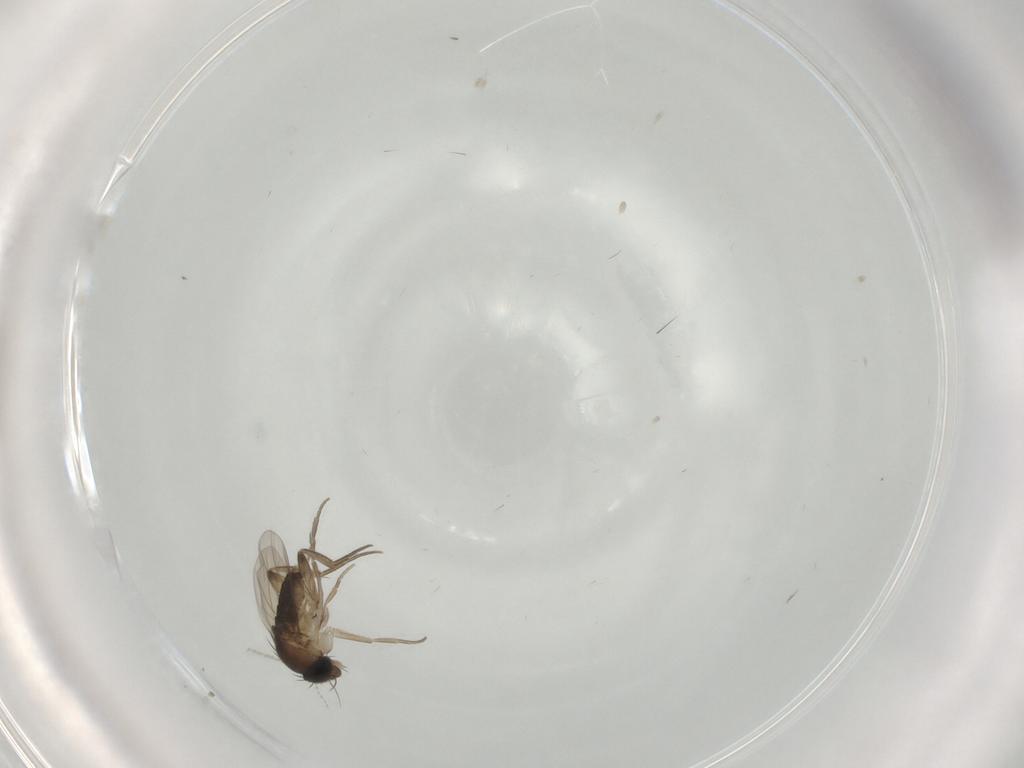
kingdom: Animalia
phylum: Arthropoda
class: Insecta
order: Diptera
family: Phoridae
